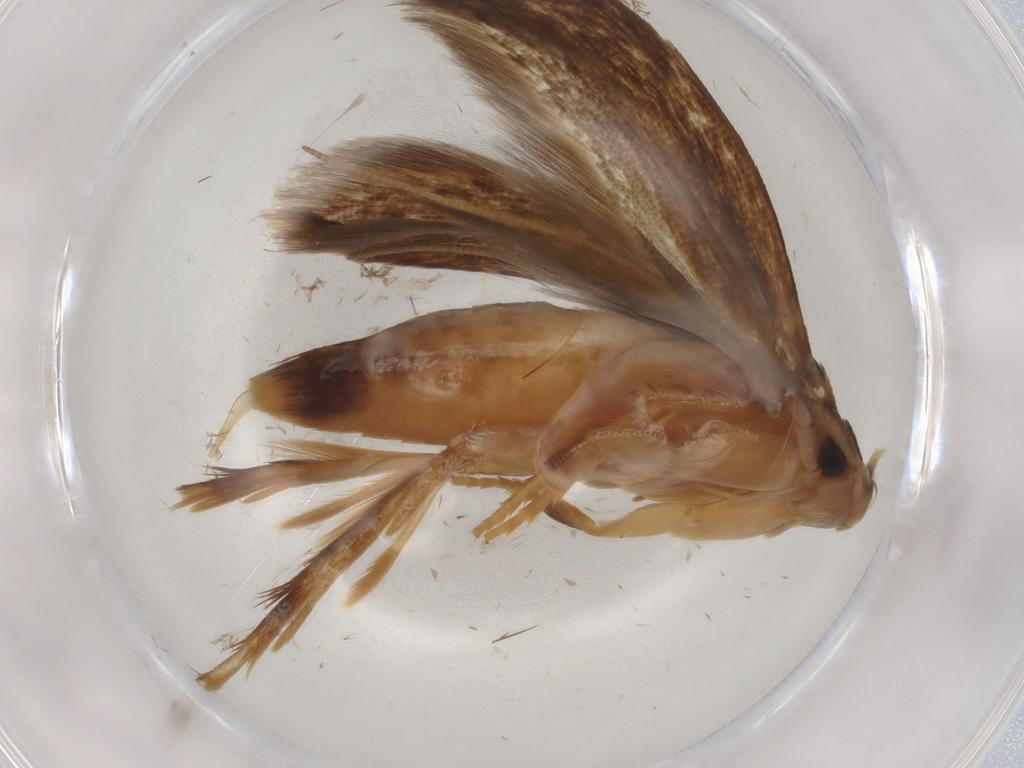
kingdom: Animalia
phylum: Arthropoda
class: Insecta
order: Lepidoptera
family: Tineidae
